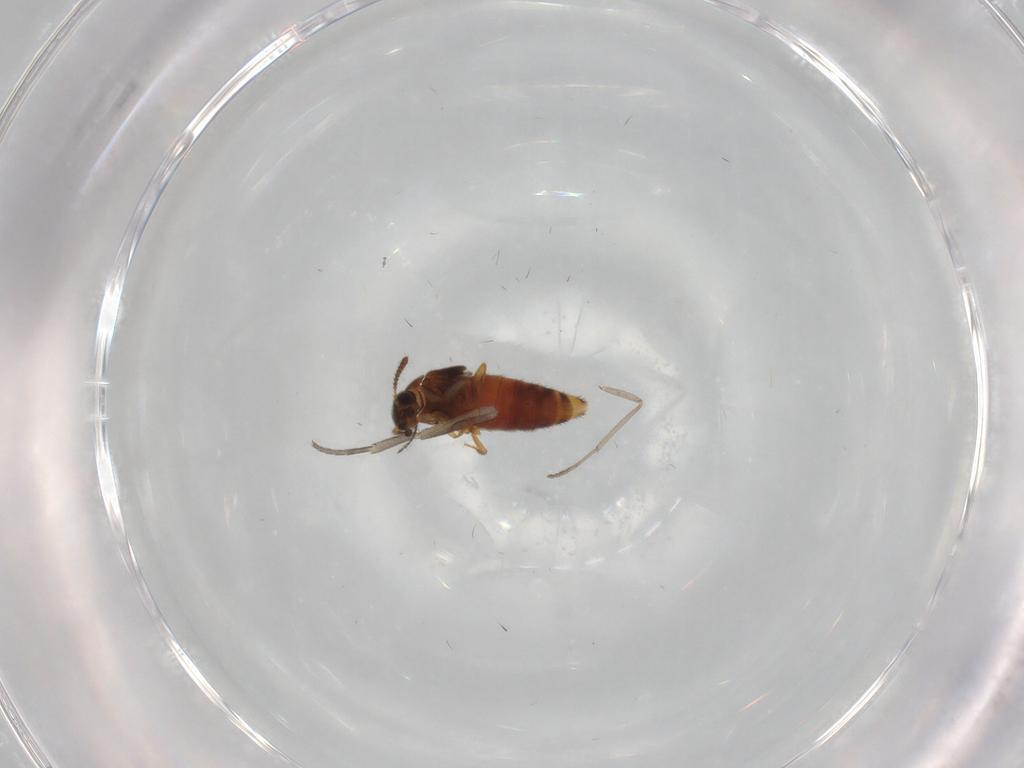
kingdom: Animalia
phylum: Arthropoda
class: Insecta
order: Coleoptera
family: Staphylinidae
